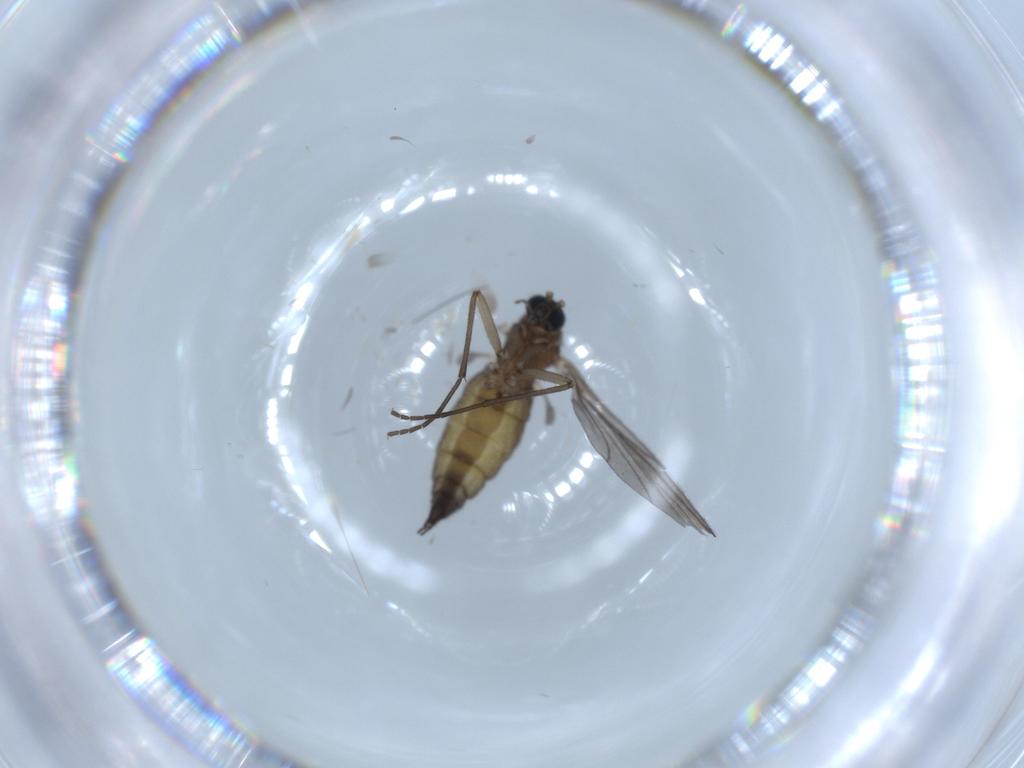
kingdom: Animalia
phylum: Arthropoda
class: Insecta
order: Diptera
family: Sciaridae
